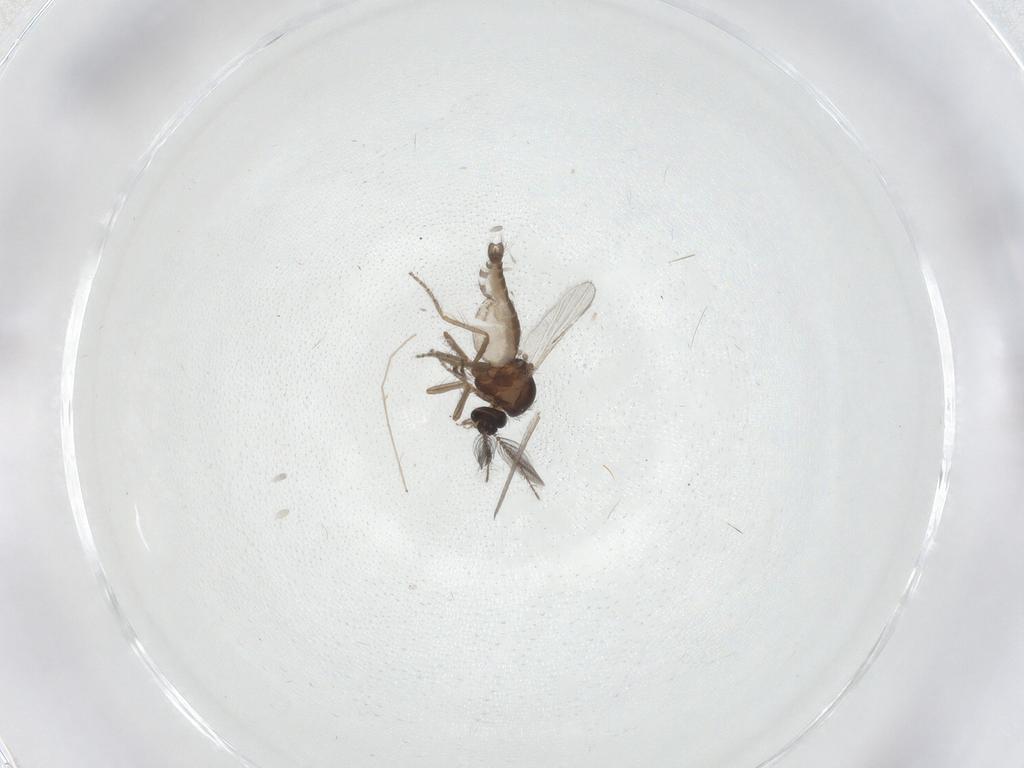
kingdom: Animalia
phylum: Arthropoda
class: Insecta
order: Diptera
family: Ceratopogonidae
